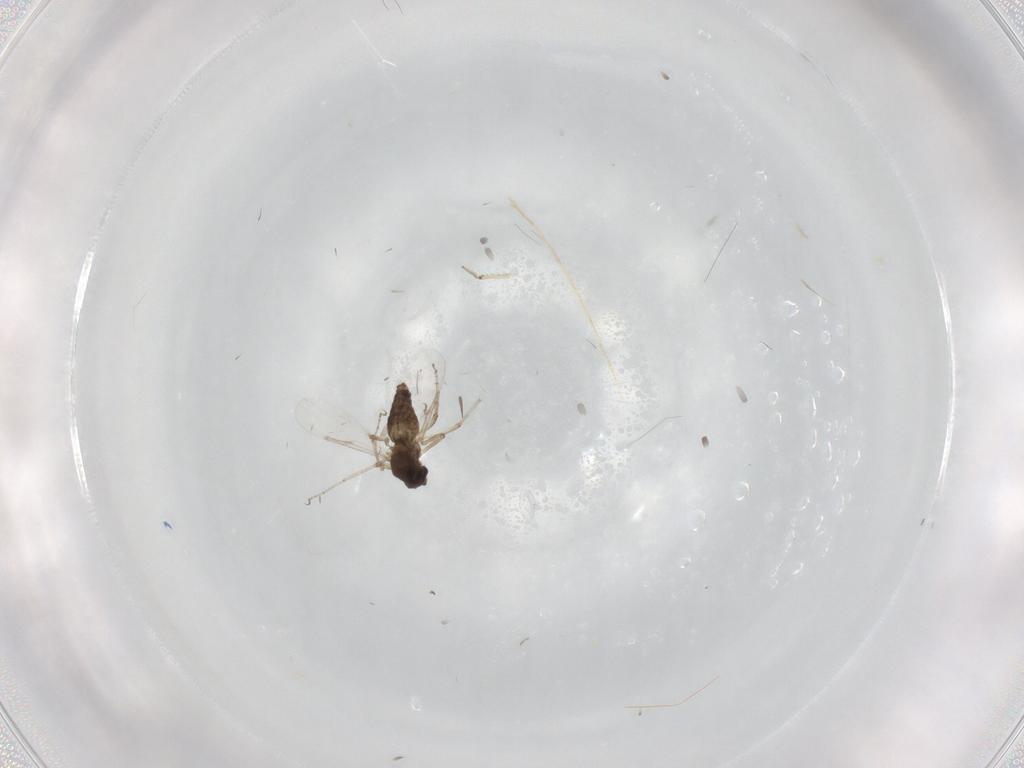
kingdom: Animalia
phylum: Arthropoda
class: Insecta
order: Diptera
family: Chironomidae
